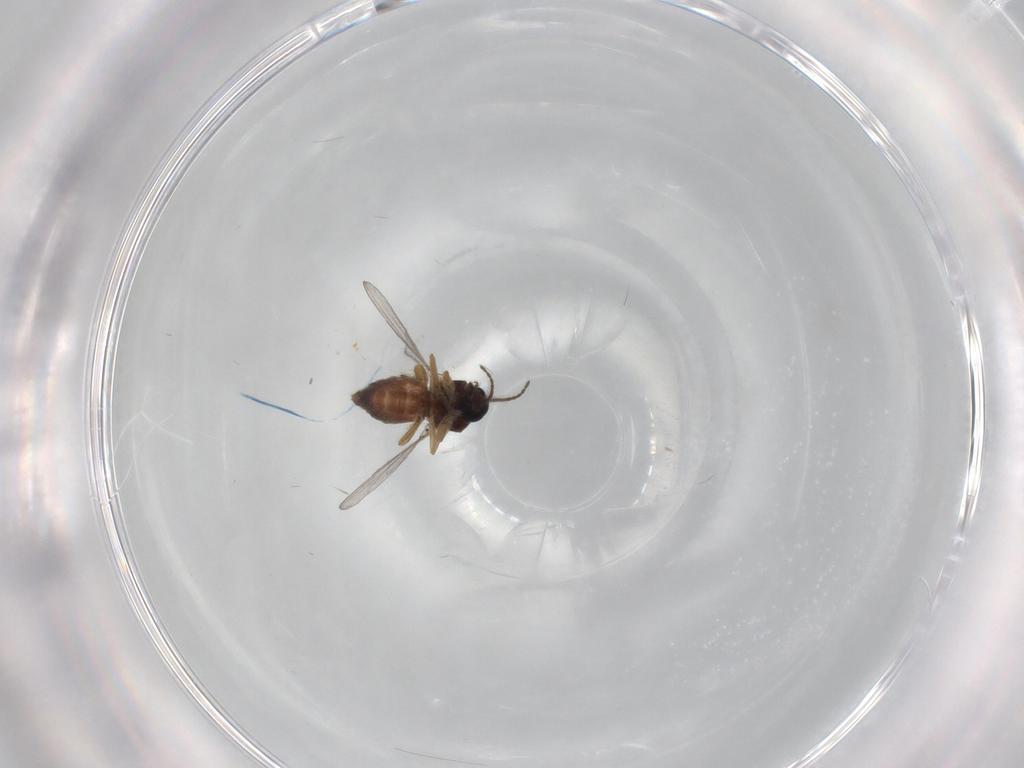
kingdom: Animalia
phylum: Arthropoda
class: Insecta
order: Diptera
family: Ceratopogonidae
